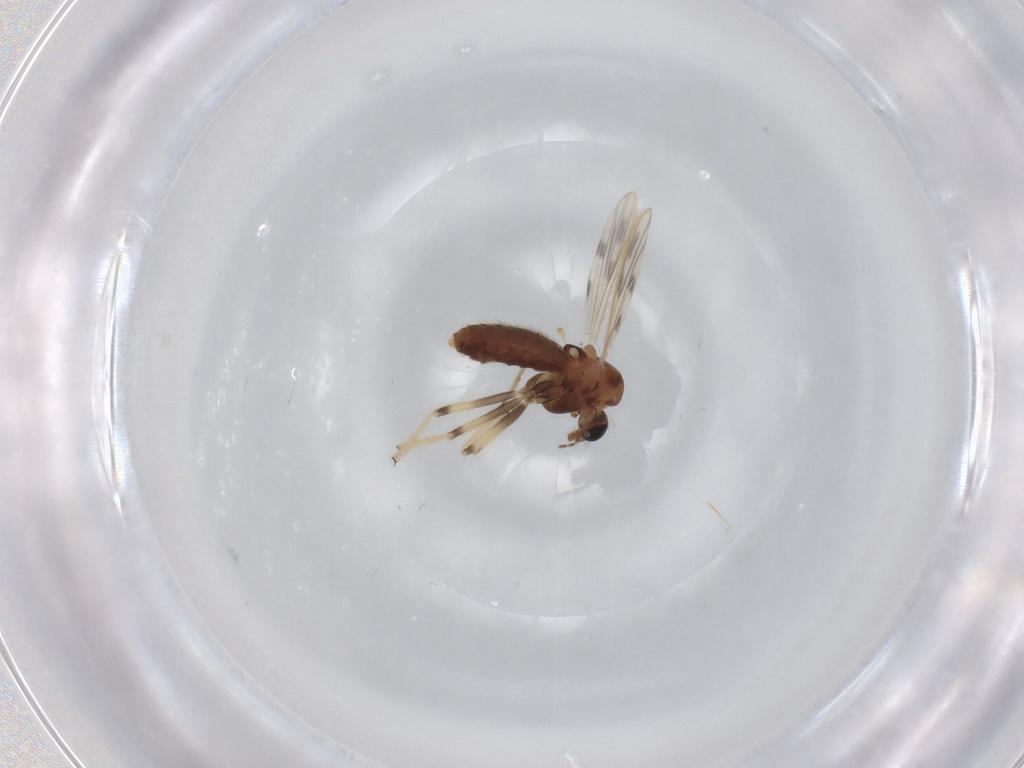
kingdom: Animalia
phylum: Arthropoda
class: Insecta
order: Diptera
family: Chironomidae
